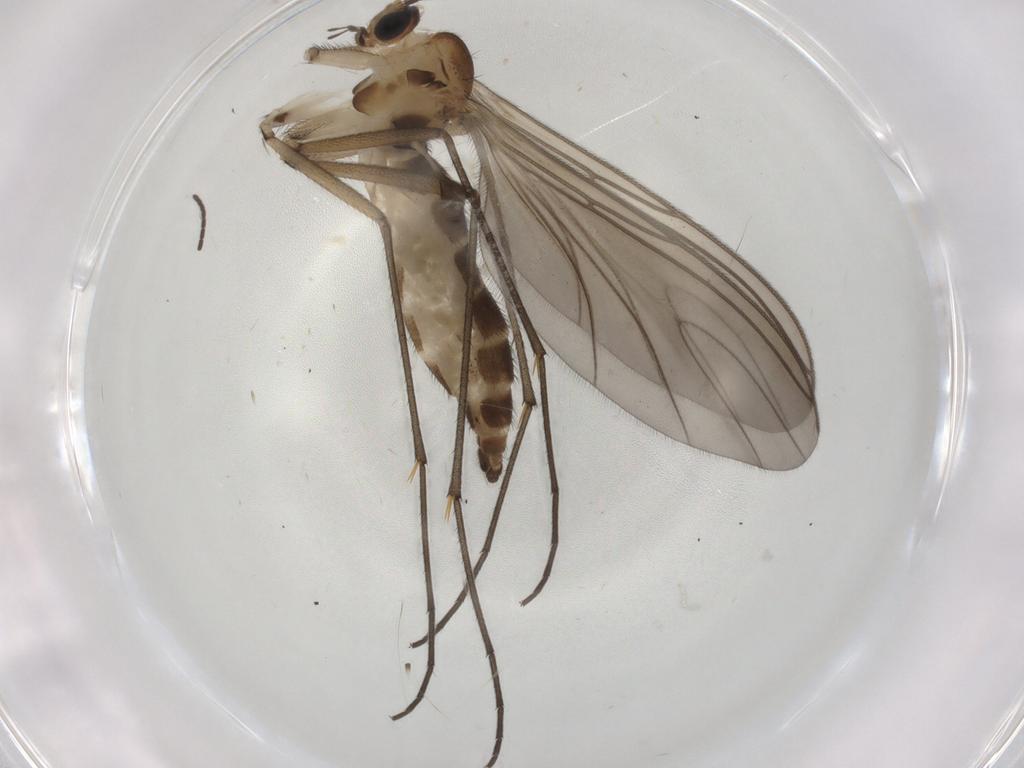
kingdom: Animalia
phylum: Arthropoda
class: Insecta
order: Diptera
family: Sciaridae
